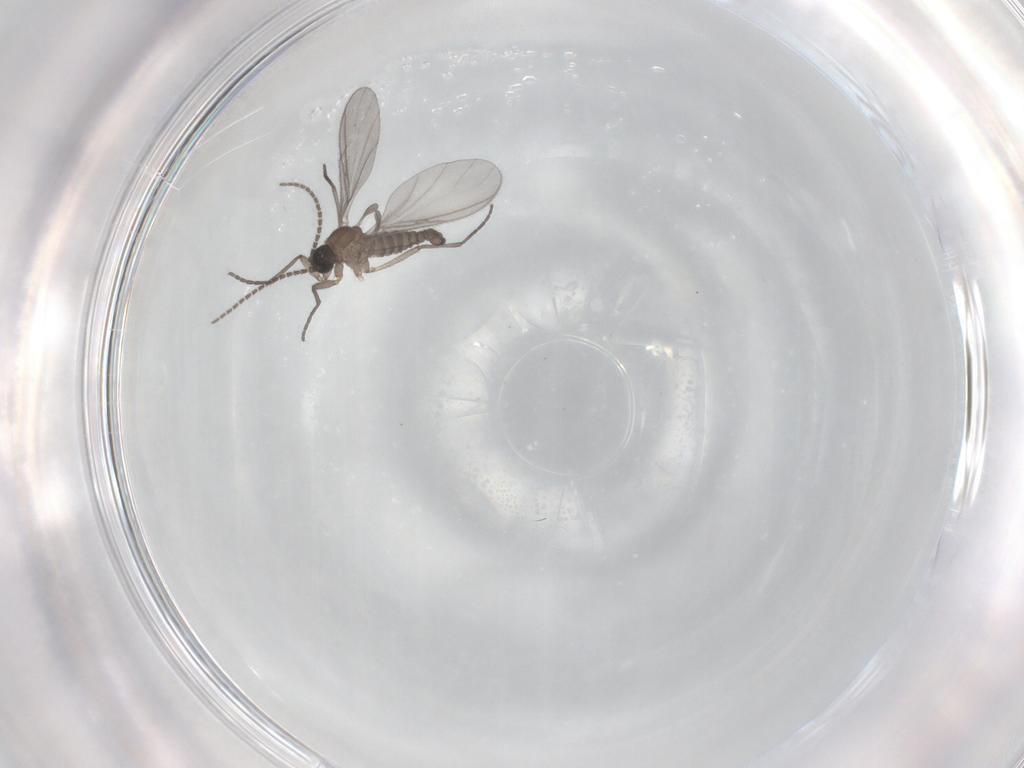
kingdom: Animalia
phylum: Arthropoda
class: Insecta
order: Diptera
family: Sciaridae
